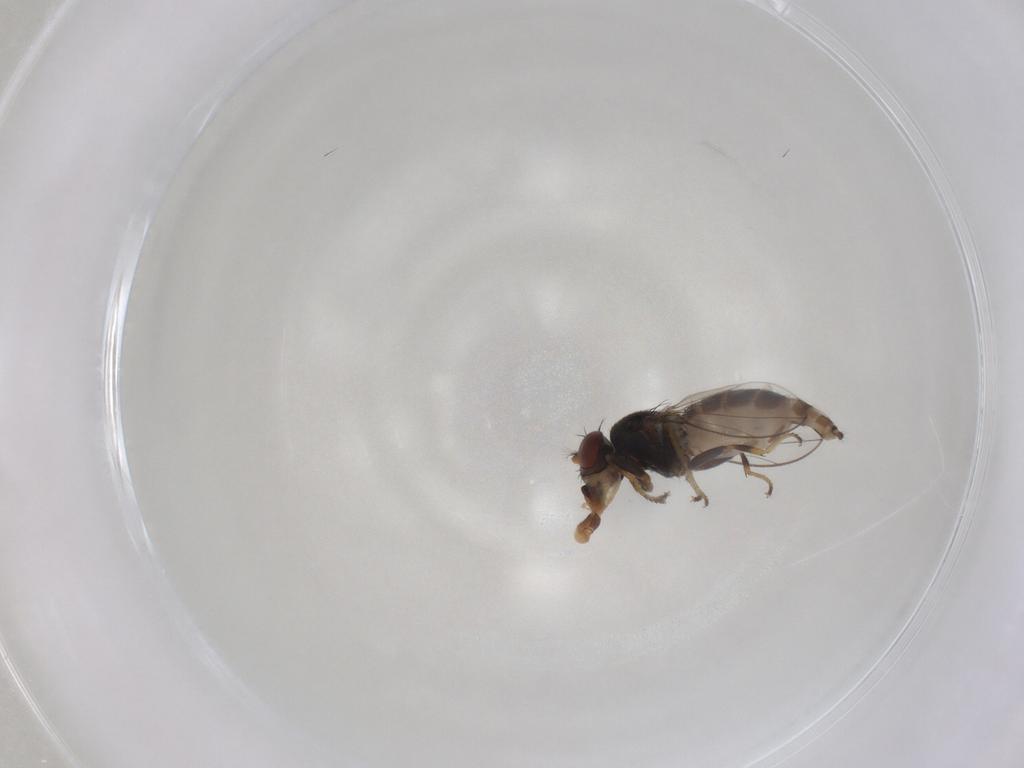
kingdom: Animalia
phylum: Arthropoda
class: Insecta
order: Diptera
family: Ephydridae
